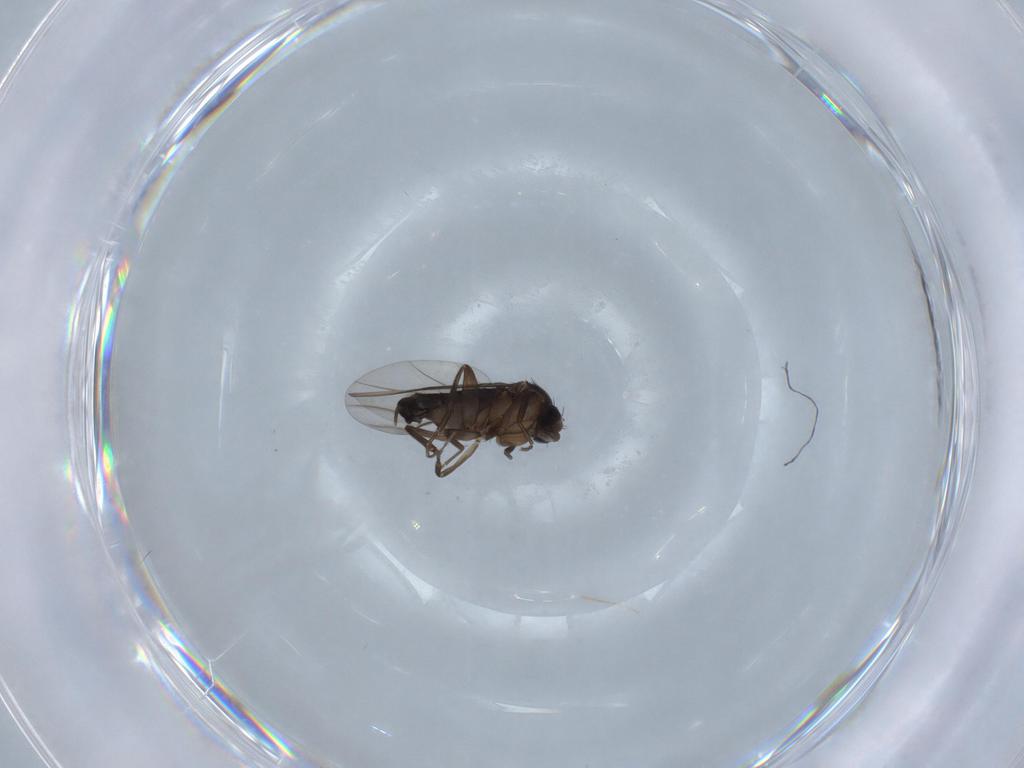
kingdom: Animalia
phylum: Arthropoda
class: Insecta
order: Diptera
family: Phoridae
